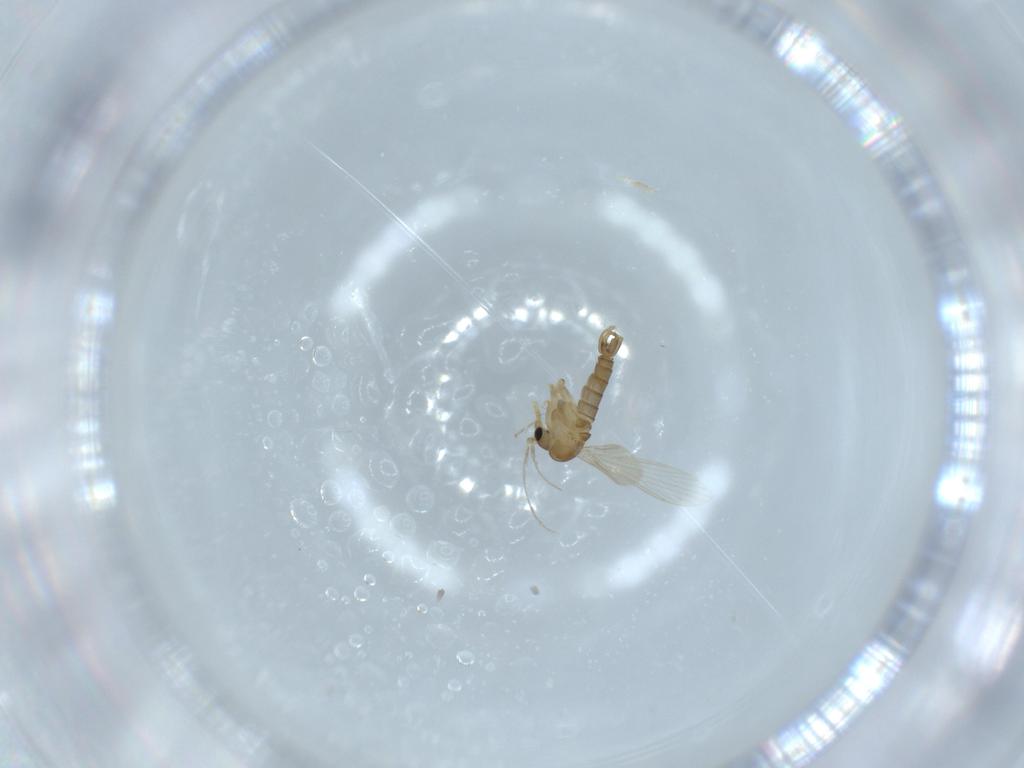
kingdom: Animalia
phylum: Arthropoda
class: Insecta
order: Diptera
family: Psychodidae
